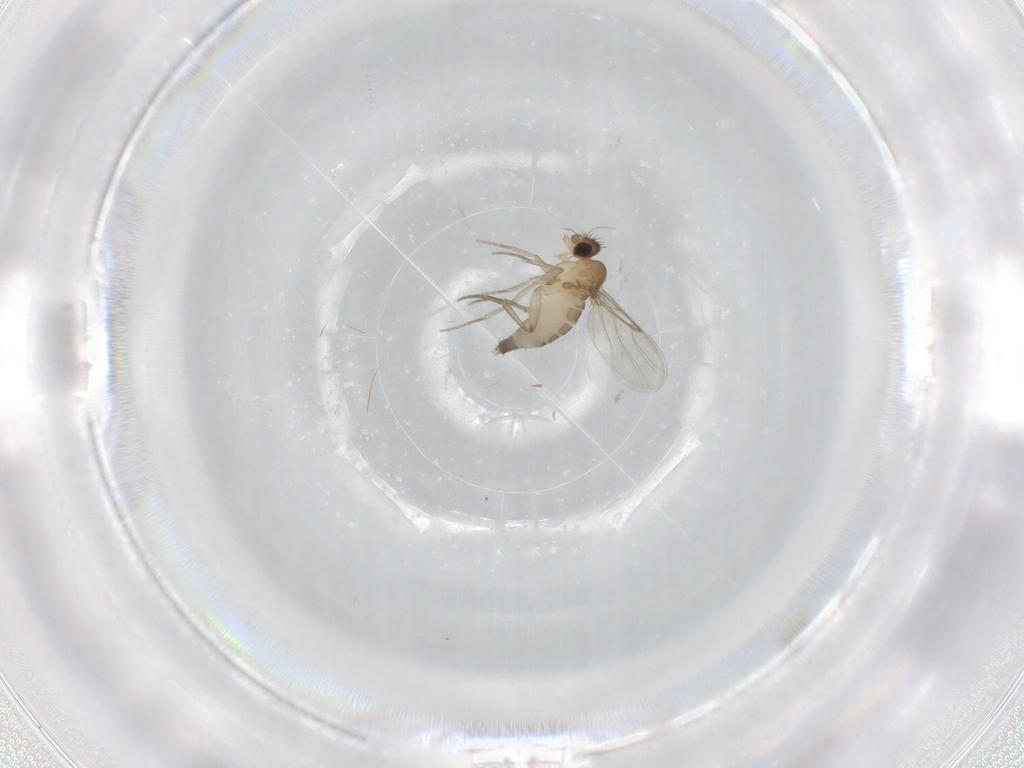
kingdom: Animalia
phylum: Arthropoda
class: Insecta
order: Diptera
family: Phoridae
